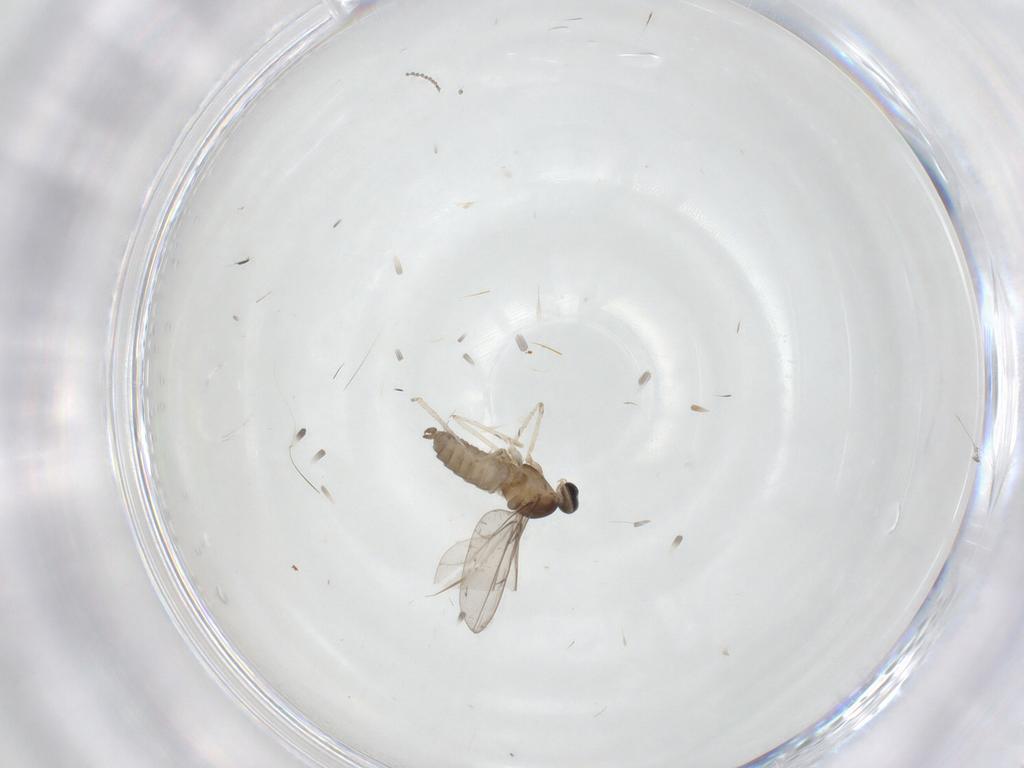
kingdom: Animalia
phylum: Arthropoda
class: Insecta
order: Diptera
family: Cecidomyiidae
